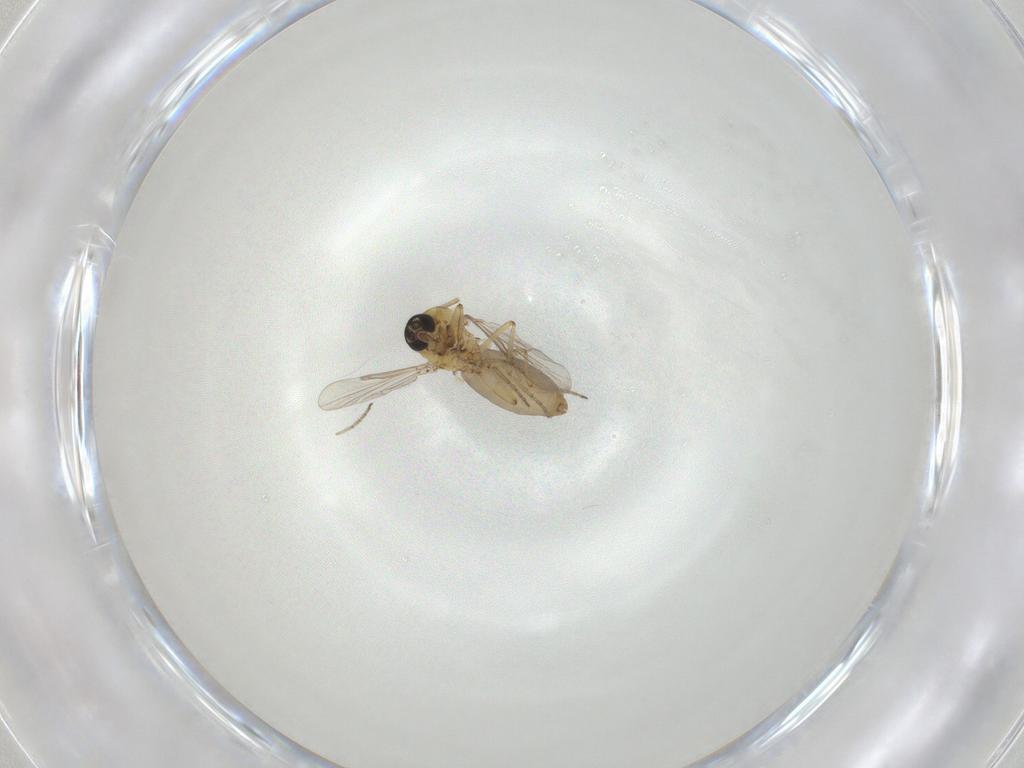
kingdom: Animalia
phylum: Arthropoda
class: Insecta
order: Diptera
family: Ceratopogonidae
